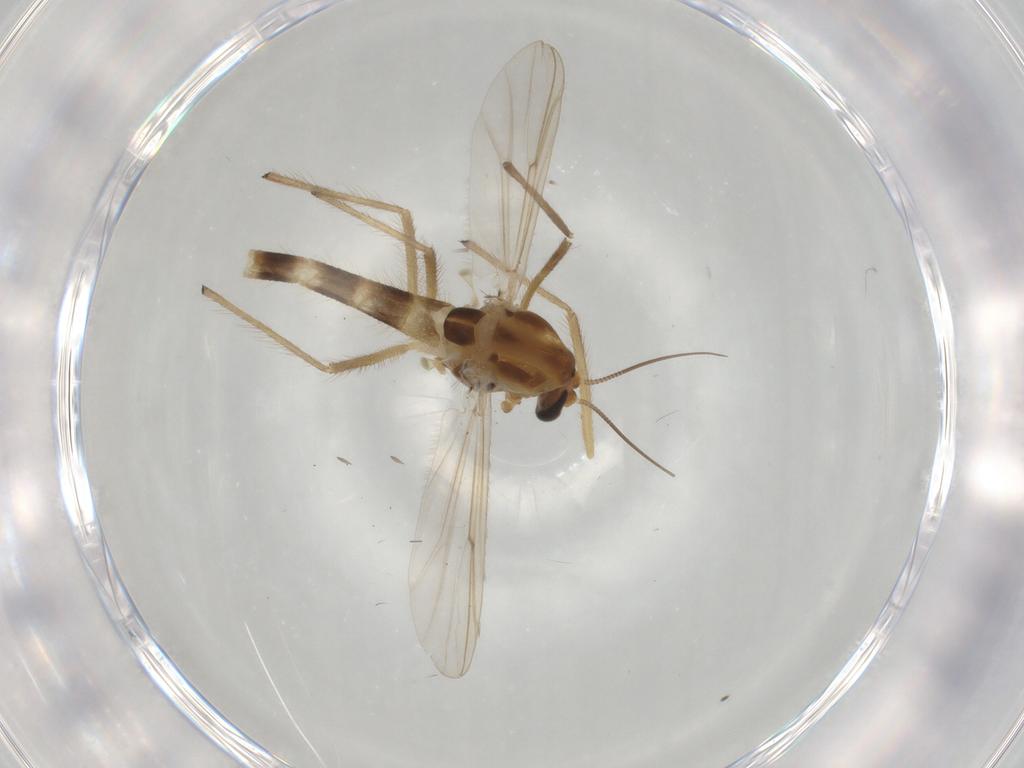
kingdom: Animalia
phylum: Arthropoda
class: Insecta
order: Diptera
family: Chironomidae
